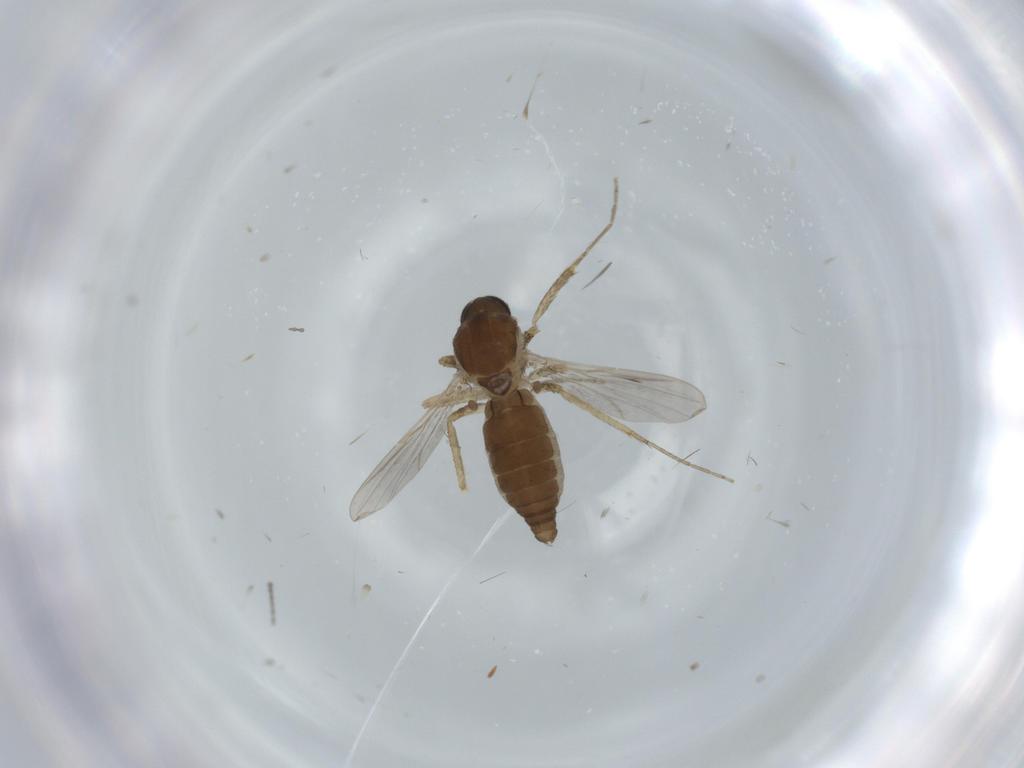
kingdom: Animalia
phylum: Arthropoda
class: Insecta
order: Diptera
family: Ceratopogonidae
